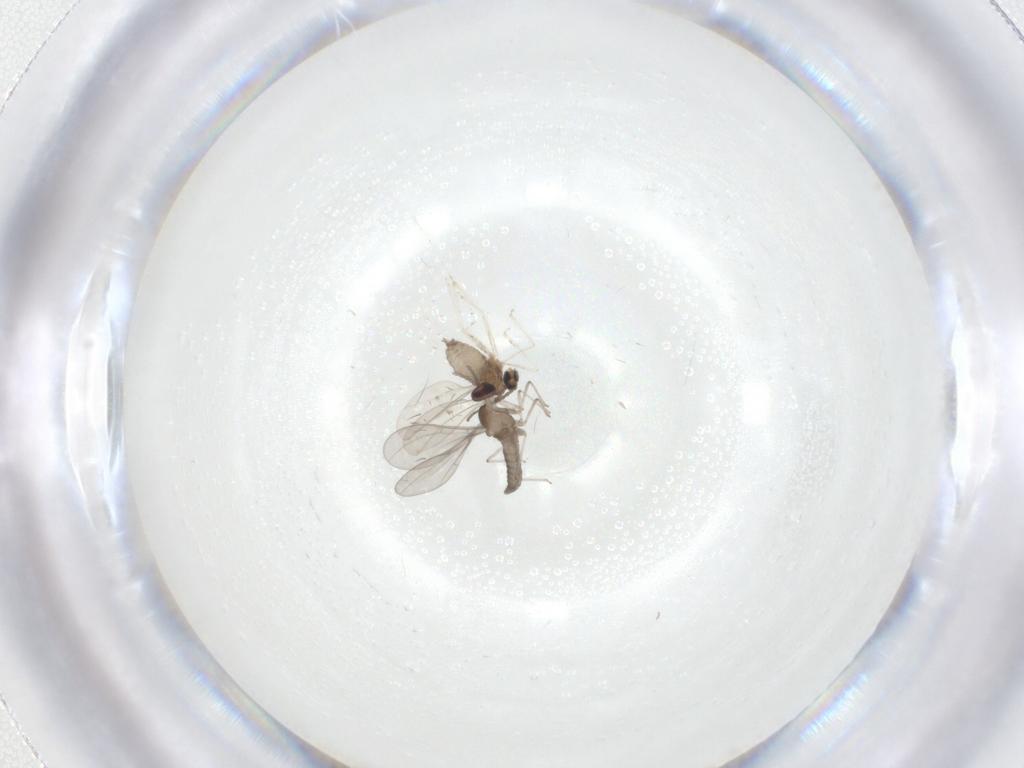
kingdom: Animalia
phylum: Arthropoda
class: Insecta
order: Diptera
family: Cecidomyiidae
